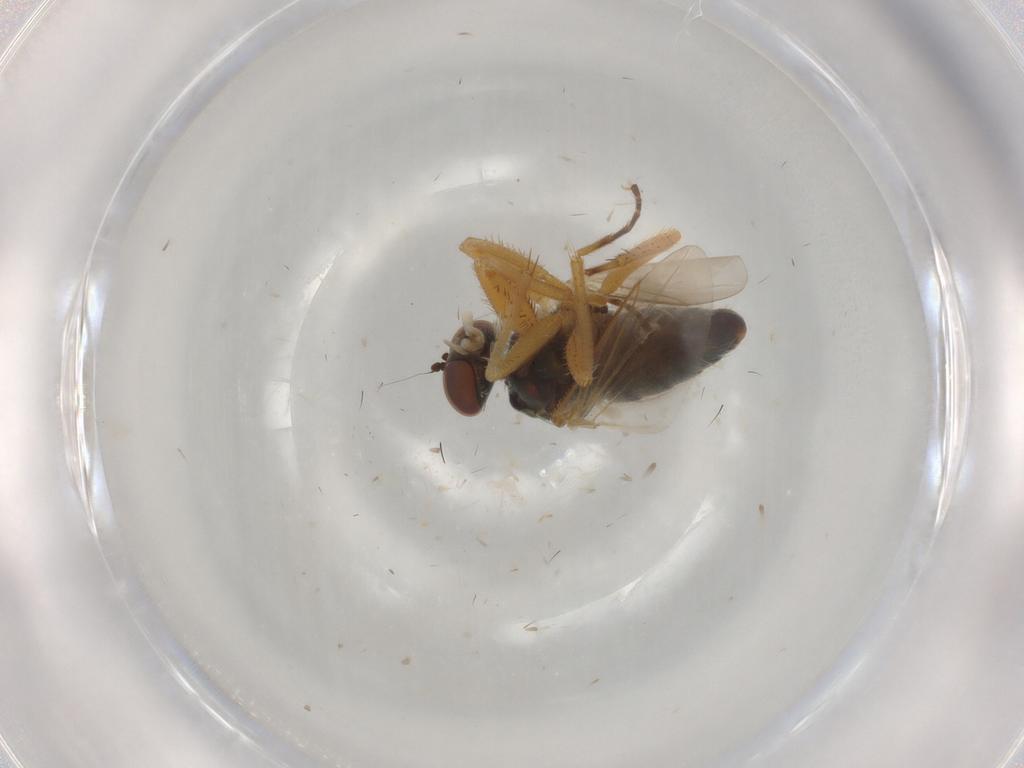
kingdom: Animalia
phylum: Arthropoda
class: Insecta
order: Diptera
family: Dolichopodidae
